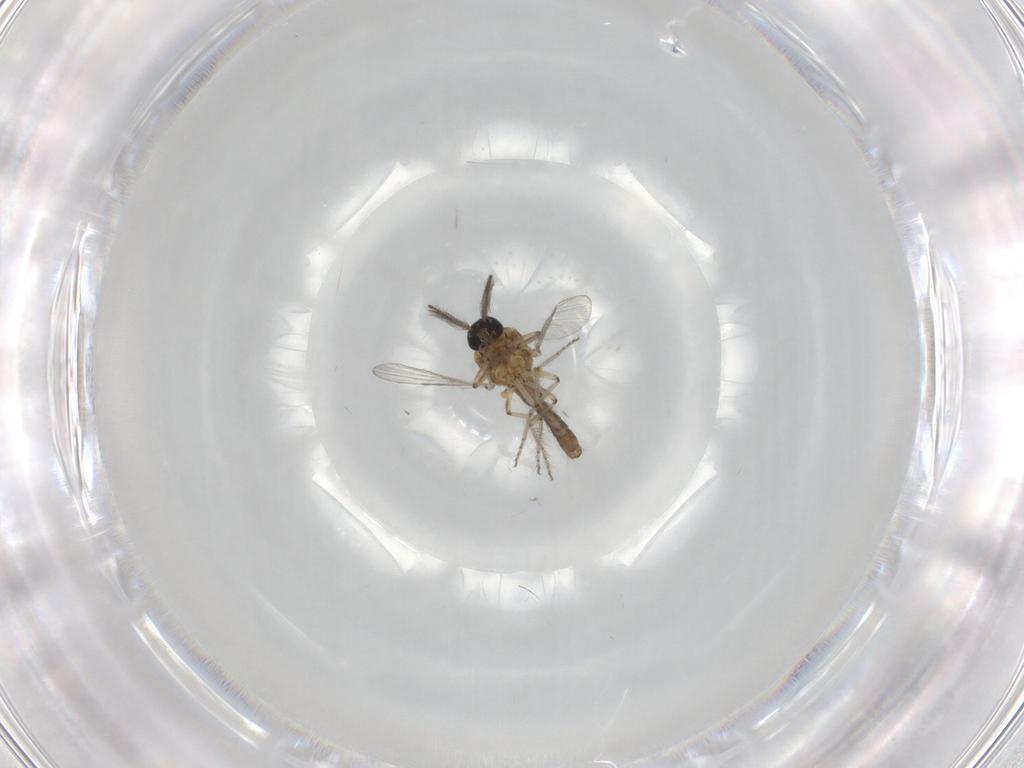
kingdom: Animalia
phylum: Arthropoda
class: Insecta
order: Diptera
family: Ceratopogonidae
